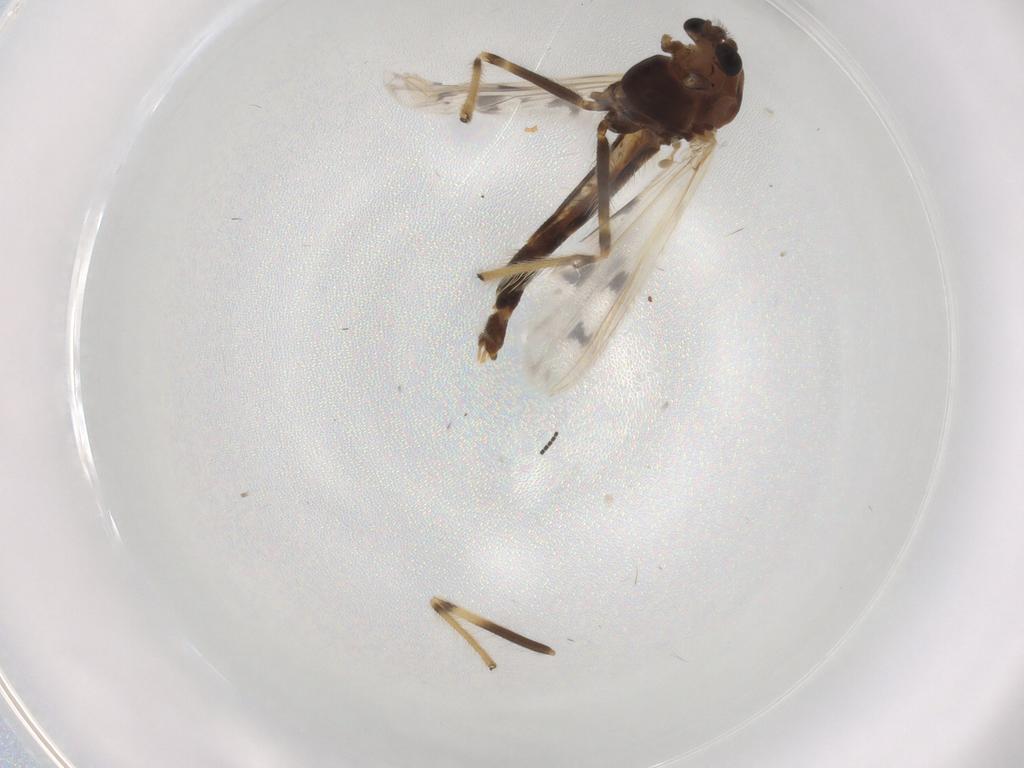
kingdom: Animalia
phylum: Arthropoda
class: Insecta
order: Diptera
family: Chironomidae
